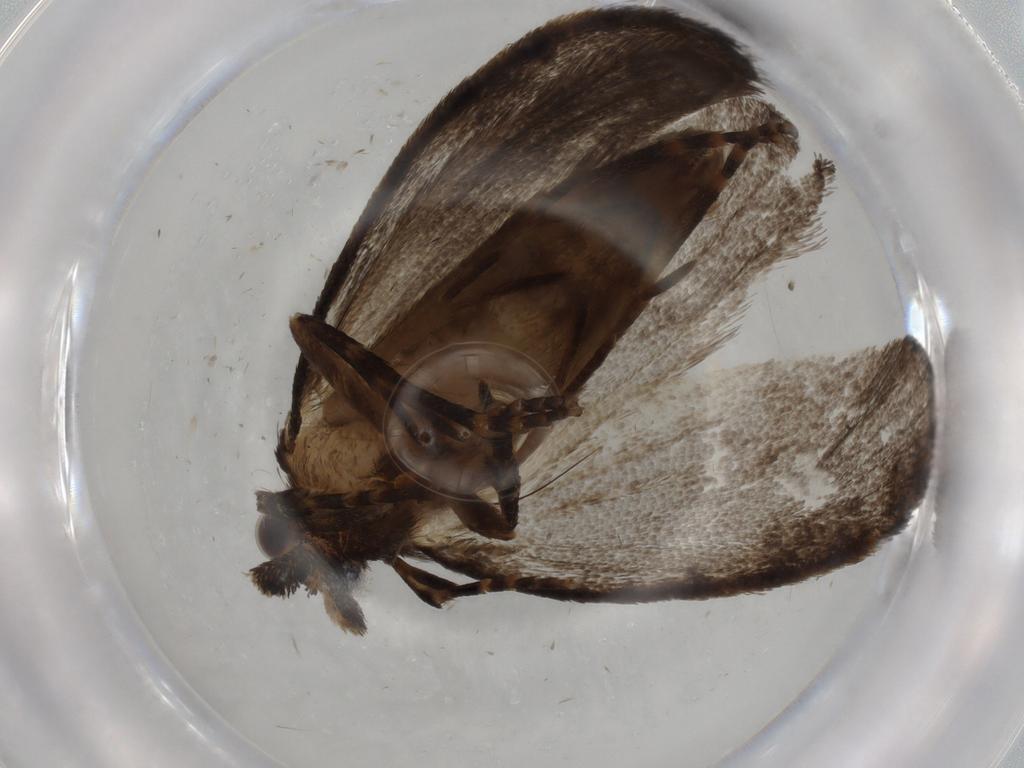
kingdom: Animalia
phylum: Arthropoda
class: Insecta
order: Lepidoptera
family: Tineidae
